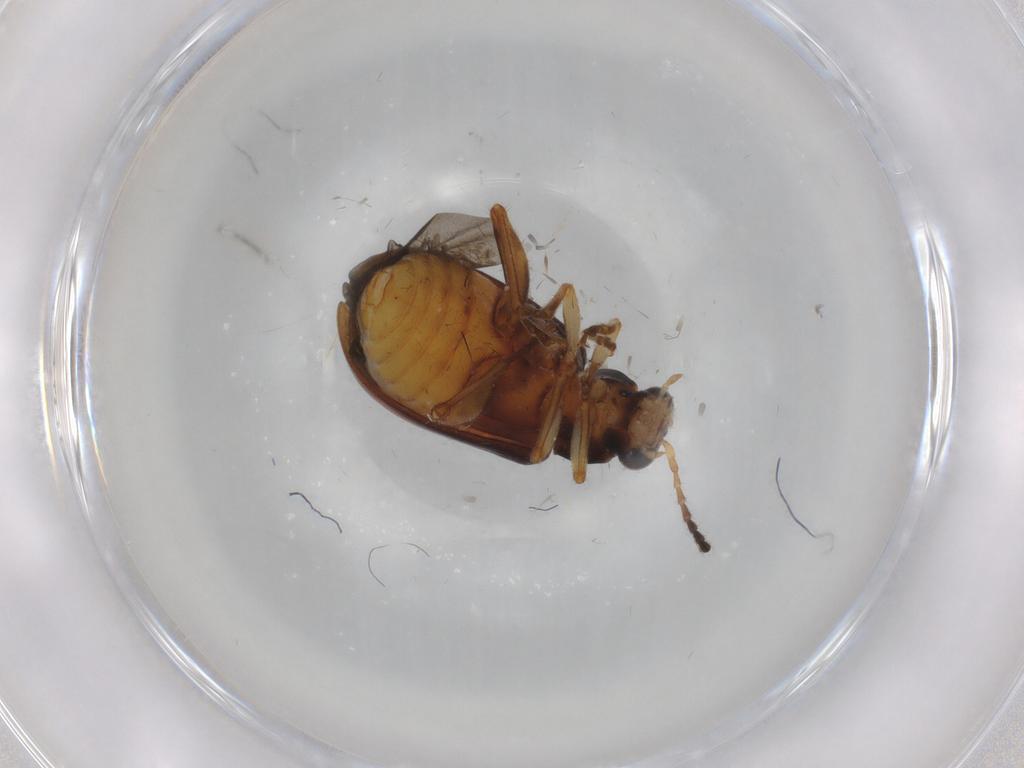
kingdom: Animalia
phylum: Arthropoda
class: Insecta
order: Coleoptera
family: Chrysomelidae
